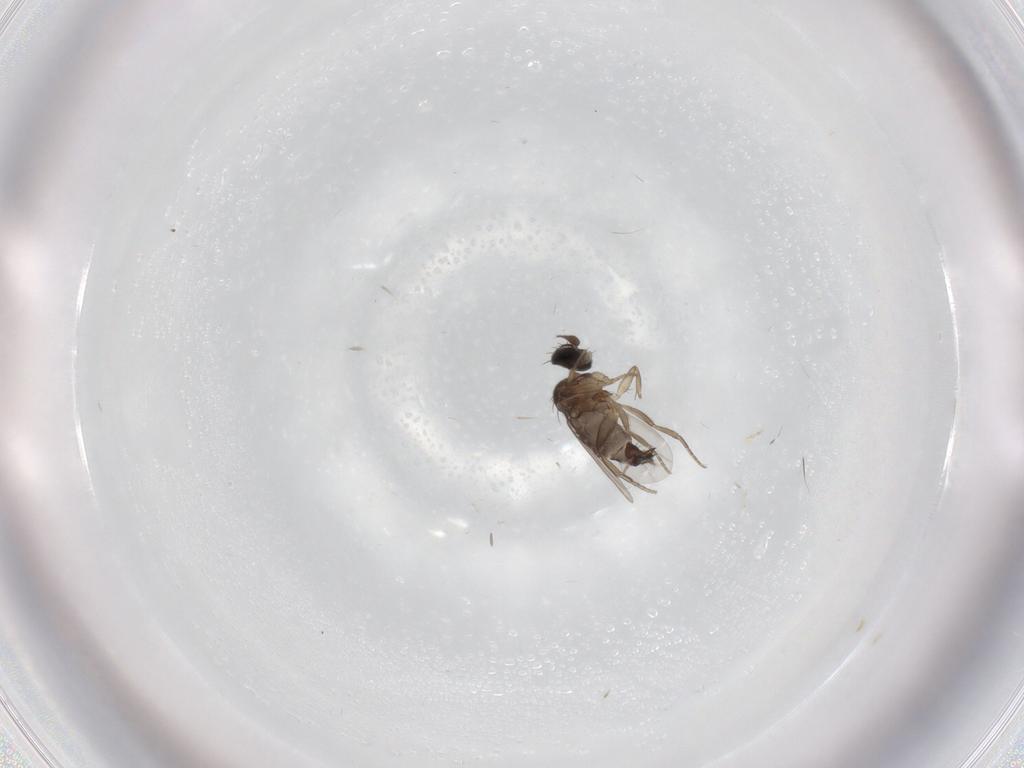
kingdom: Animalia
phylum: Arthropoda
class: Insecta
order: Diptera
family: Phoridae
